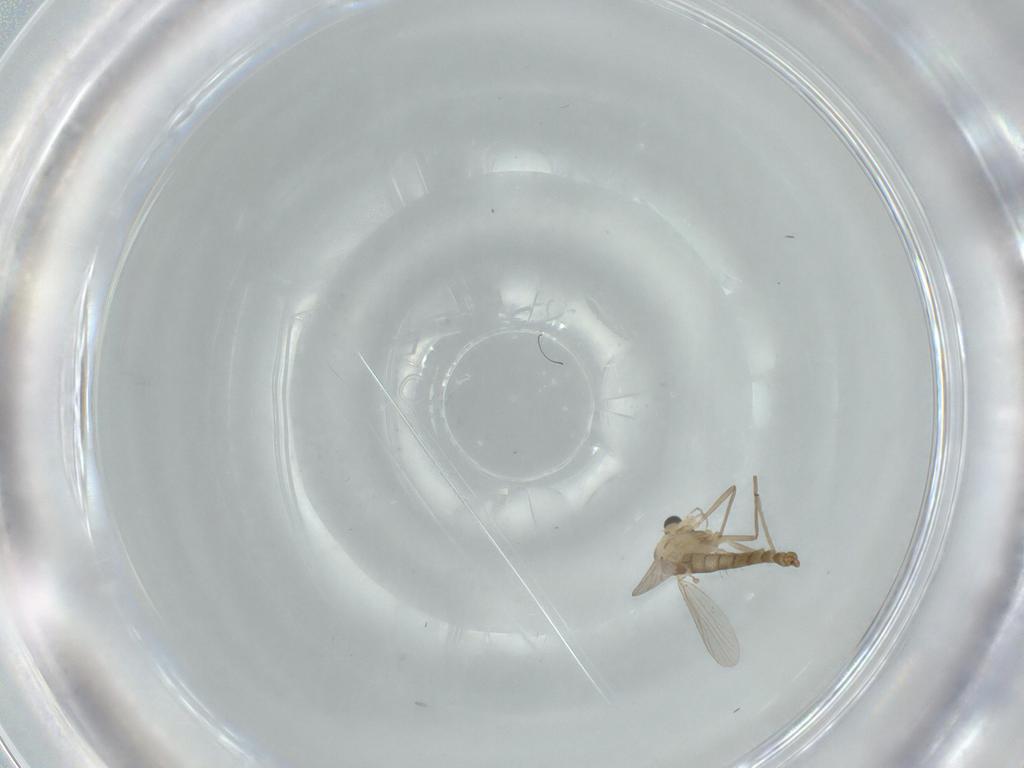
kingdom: Animalia
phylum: Arthropoda
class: Insecta
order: Diptera
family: Chironomidae
